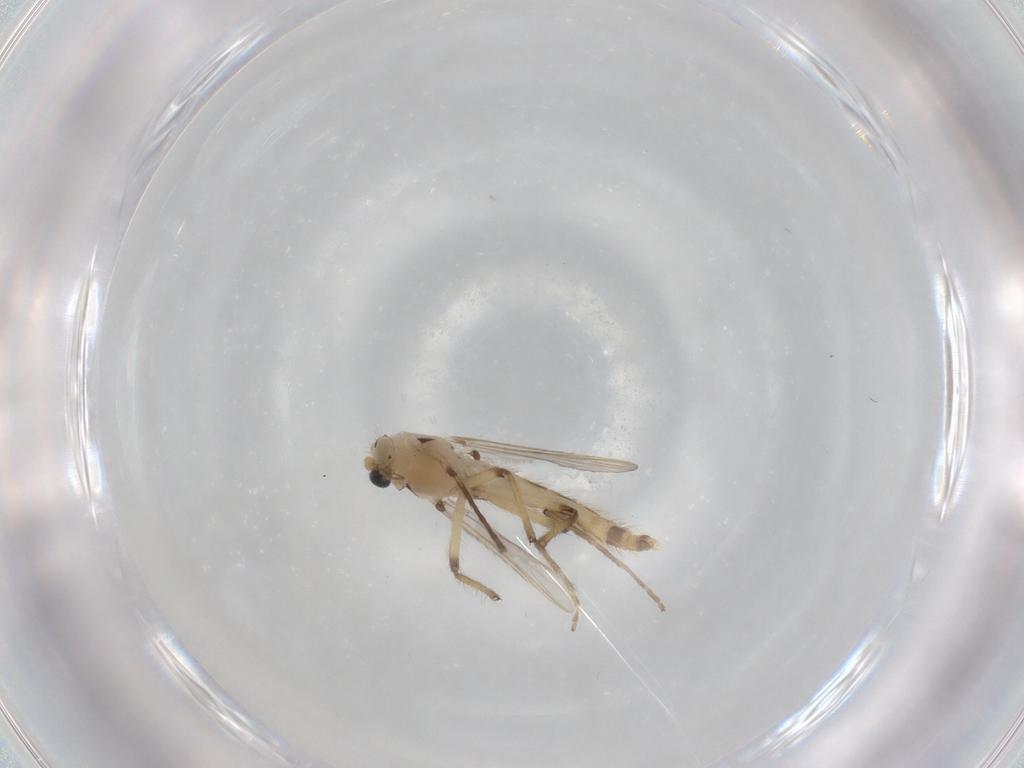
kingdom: Animalia
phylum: Arthropoda
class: Insecta
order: Diptera
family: Chironomidae
